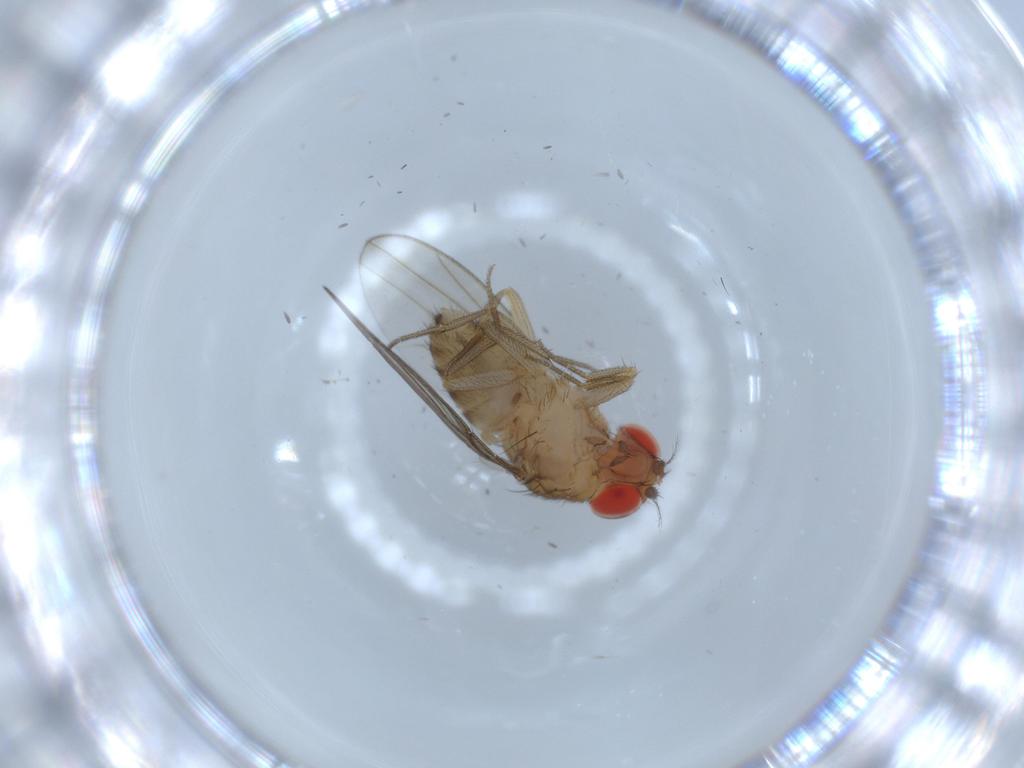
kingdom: Animalia
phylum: Arthropoda
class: Insecta
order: Diptera
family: Drosophilidae
